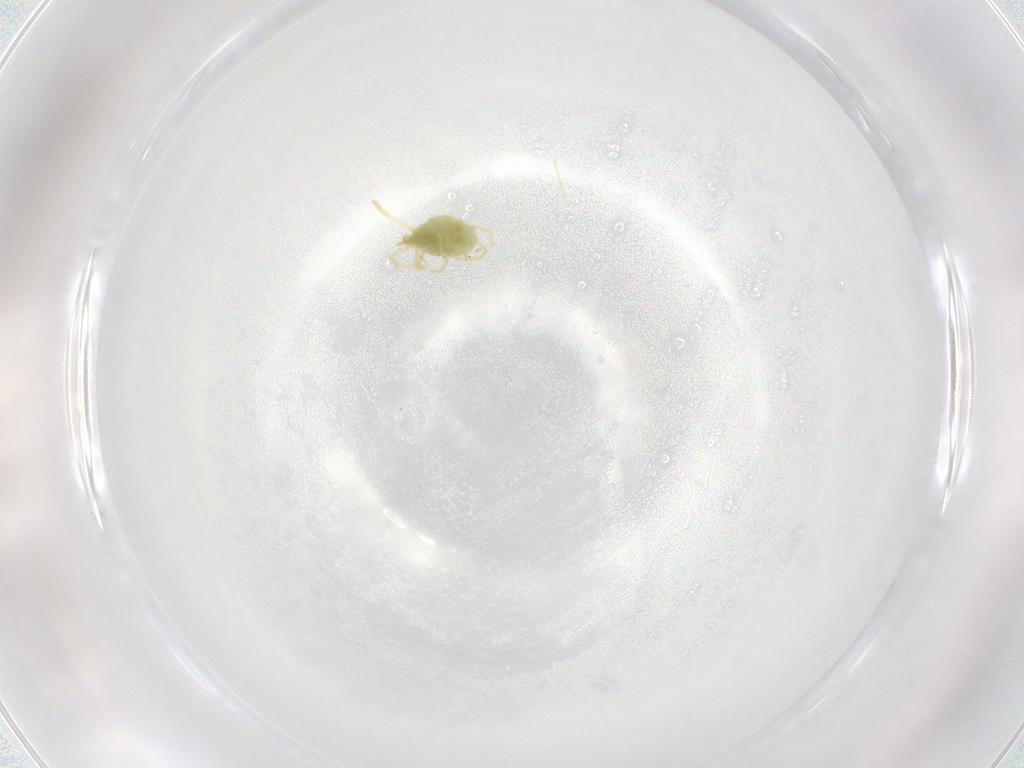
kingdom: Animalia
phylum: Arthropoda
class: Arachnida
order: Trombidiformes
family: Erythraeidae
